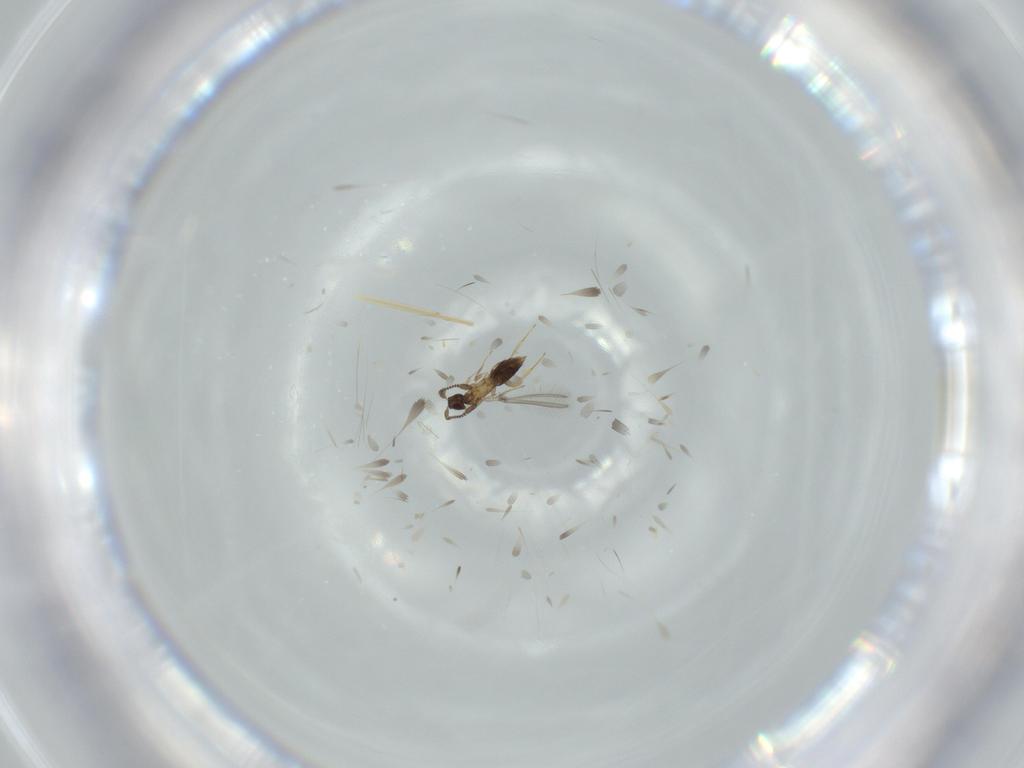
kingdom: Animalia
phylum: Arthropoda
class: Insecta
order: Hymenoptera
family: Mymaridae
